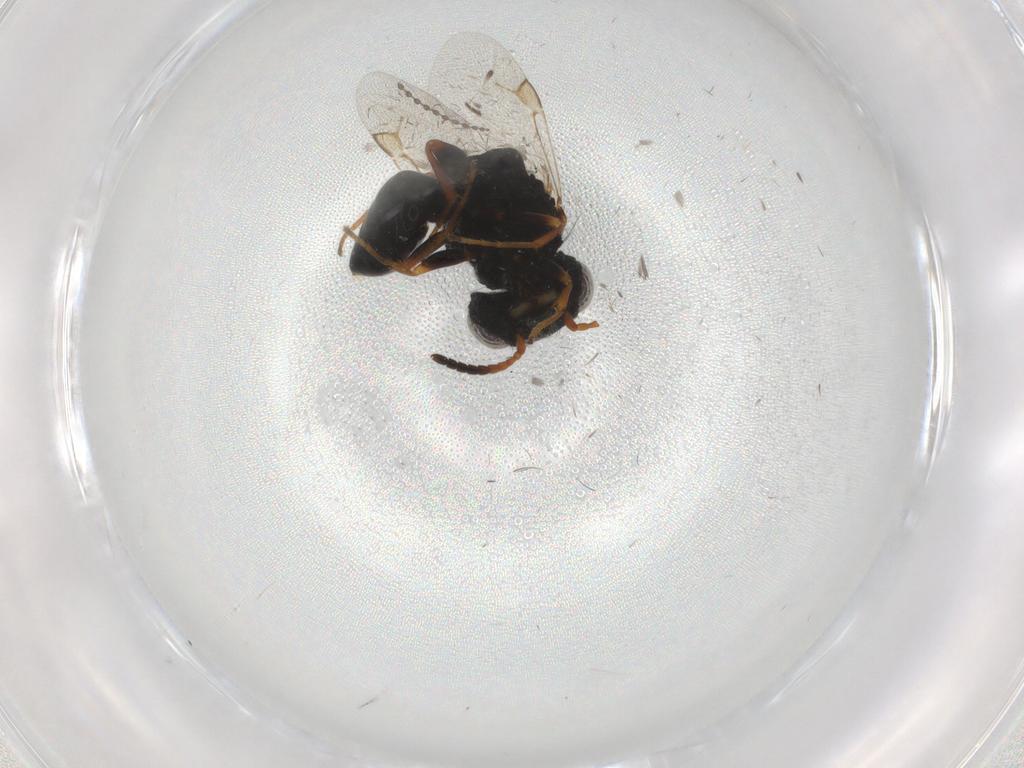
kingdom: Animalia
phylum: Arthropoda
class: Insecta
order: Hymenoptera
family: Dryinidae
